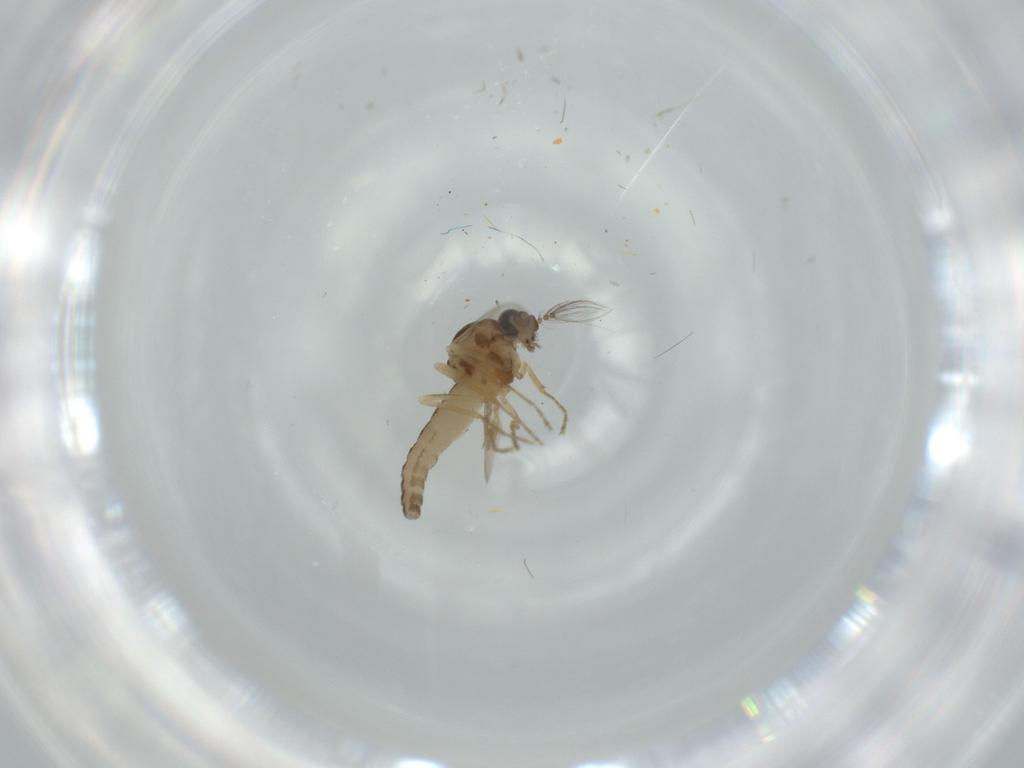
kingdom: Animalia
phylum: Arthropoda
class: Insecta
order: Diptera
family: Ceratopogonidae
